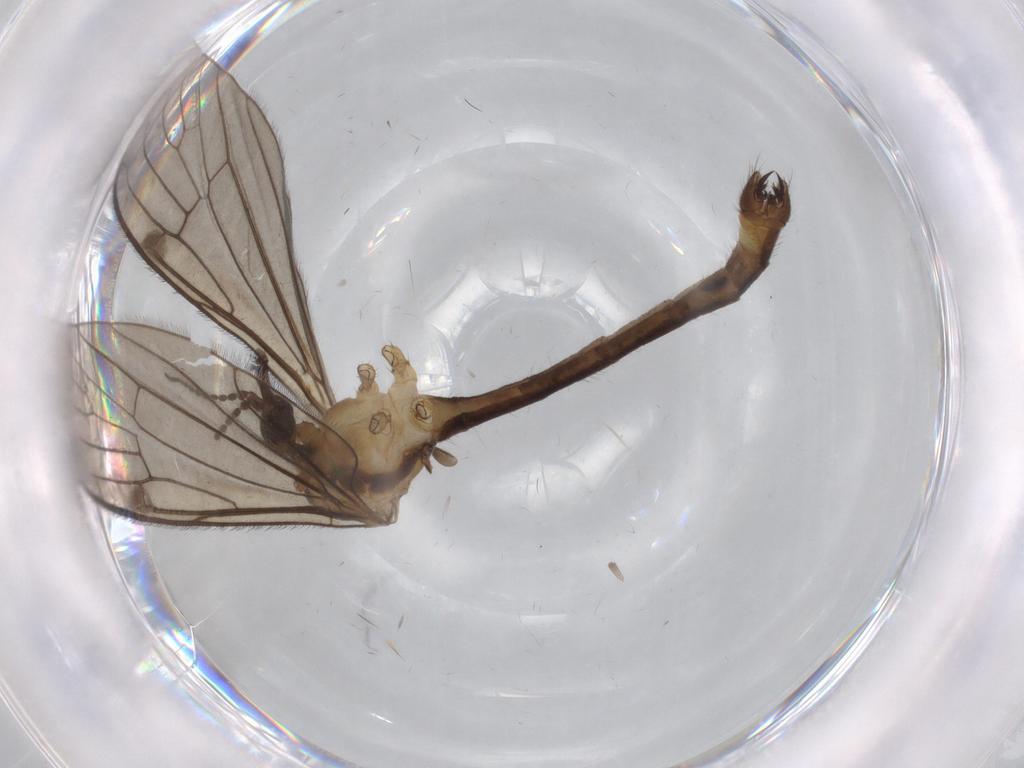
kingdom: Animalia
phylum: Arthropoda
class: Insecta
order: Diptera
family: Limoniidae
